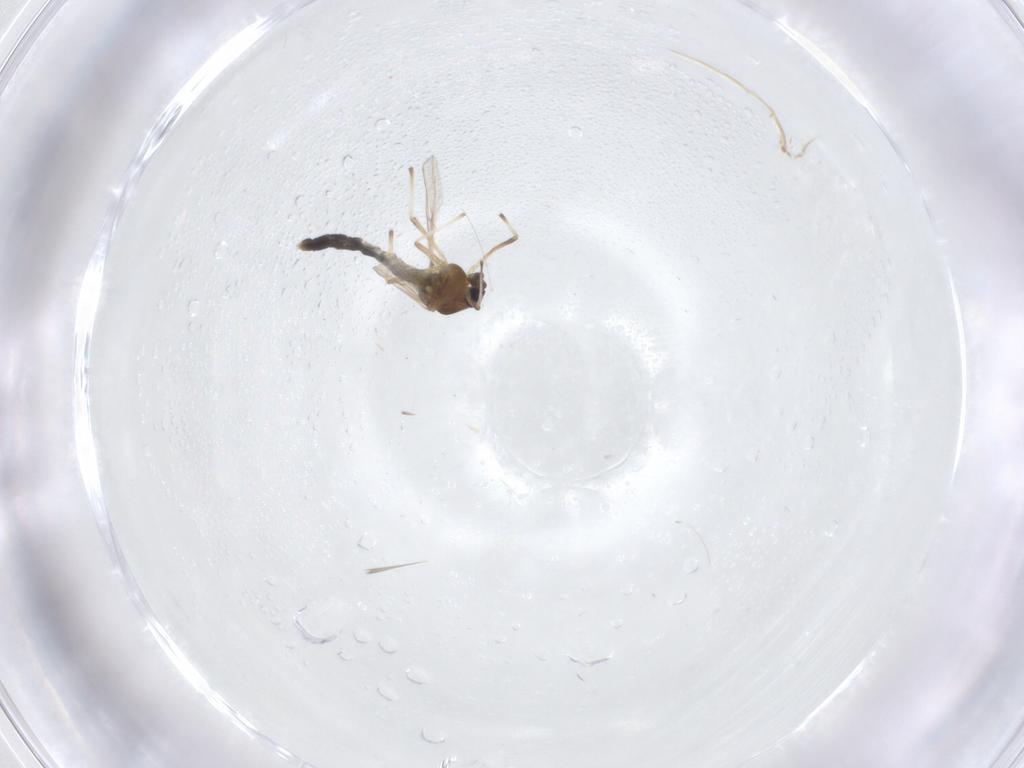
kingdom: Animalia
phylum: Arthropoda
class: Insecta
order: Diptera
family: Chironomidae
